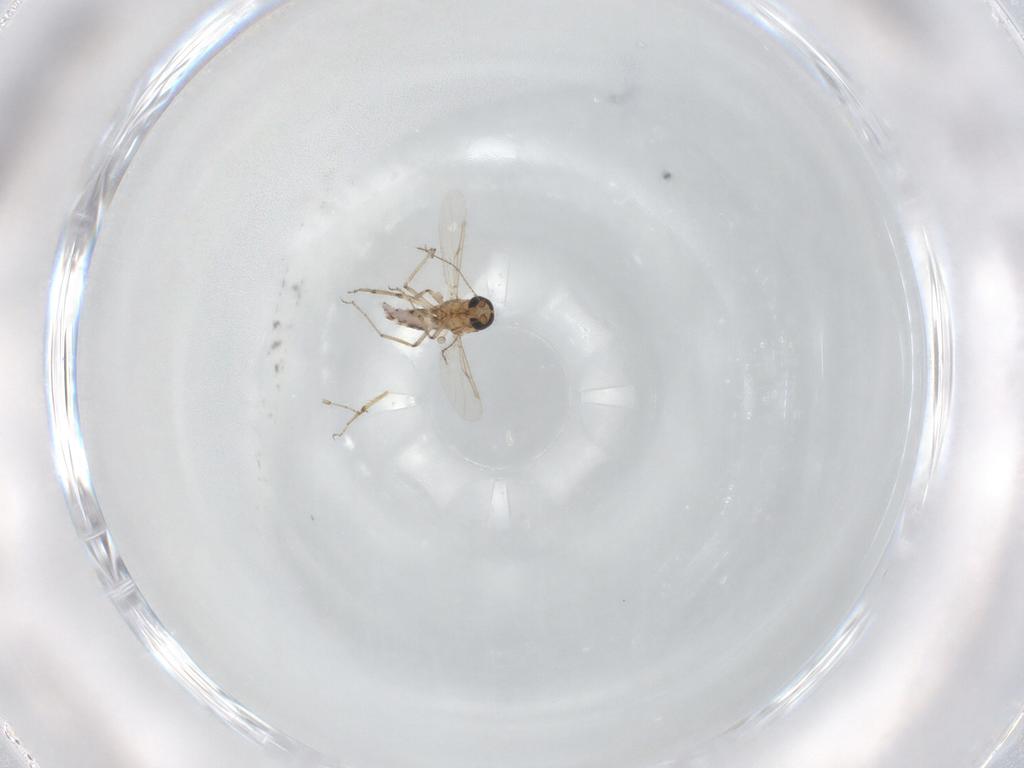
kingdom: Animalia
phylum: Arthropoda
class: Insecta
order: Diptera
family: Ceratopogonidae
